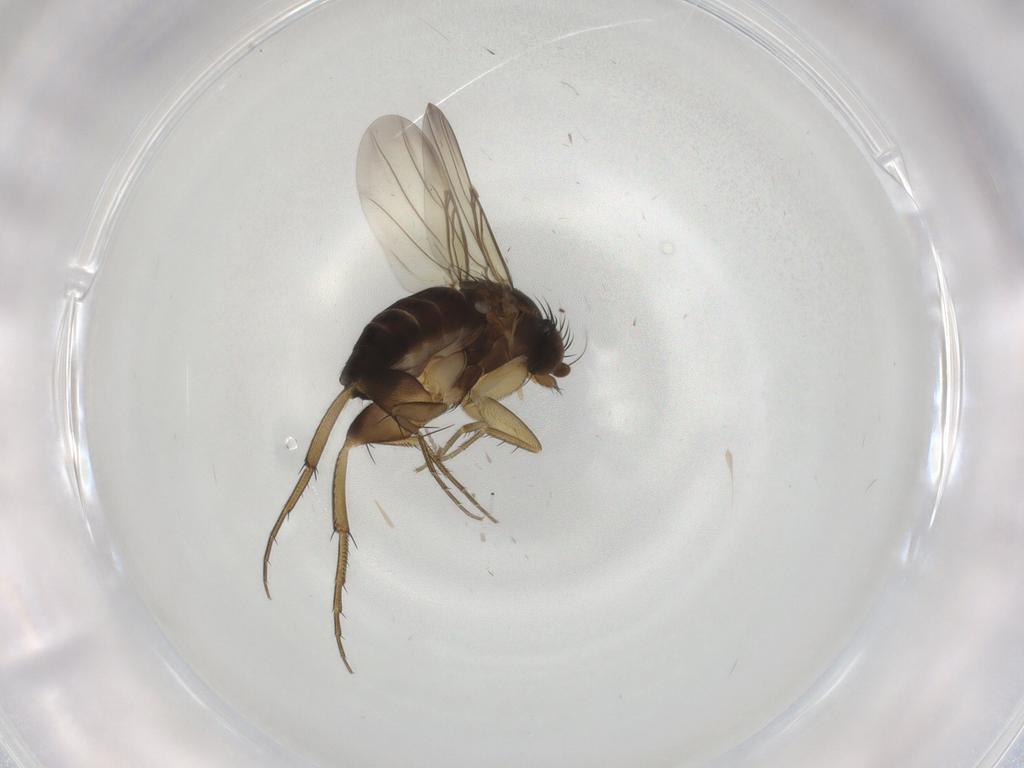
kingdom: Animalia
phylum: Arthropoda
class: Insecta
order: Diptera
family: Phoridae
